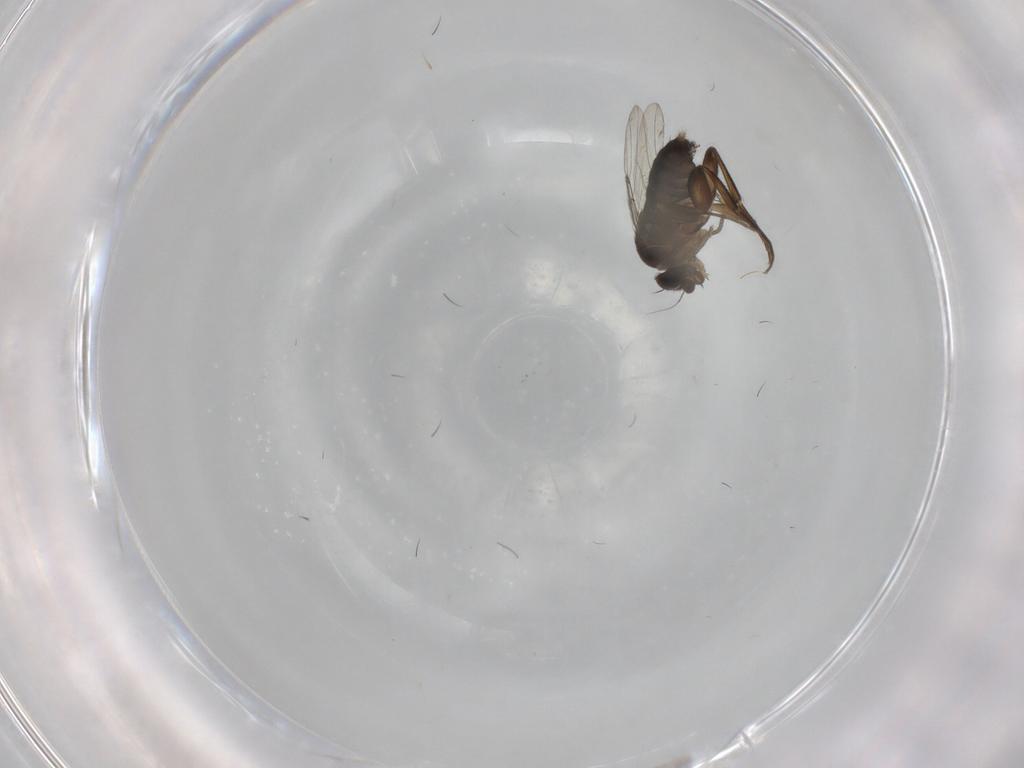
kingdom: Animalia
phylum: Arthropoda
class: Insecta
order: Diptera
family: Phoridae
